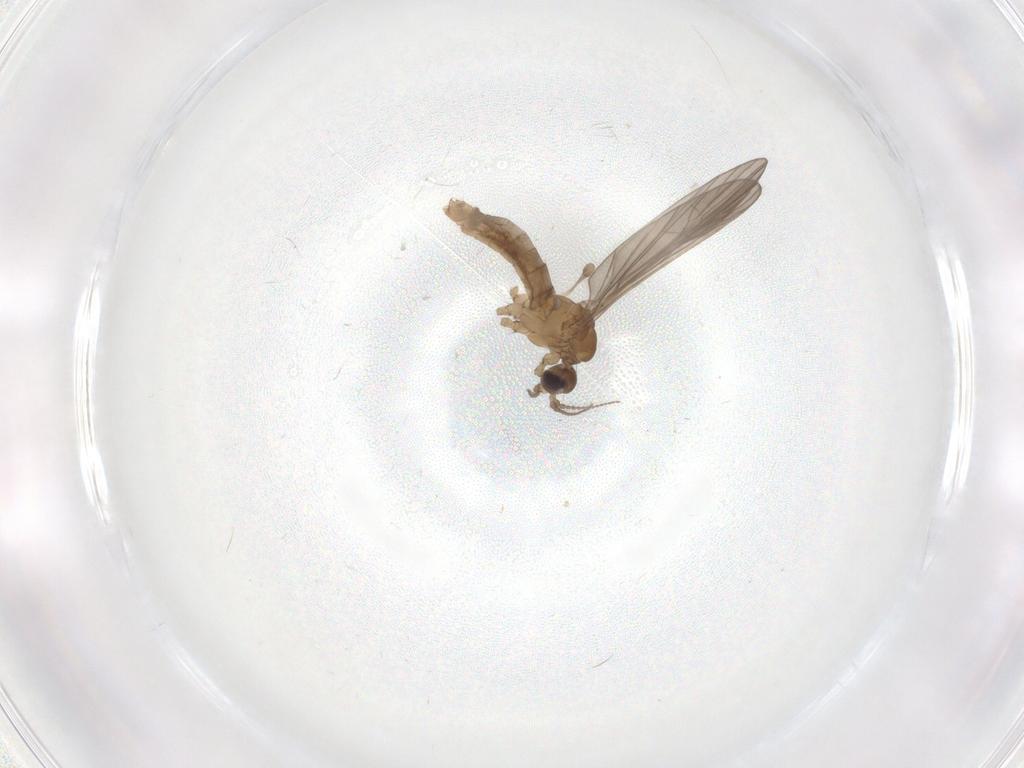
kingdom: Animalia
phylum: Arthropoda
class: Insecta
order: Diptera
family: Limoniidae
